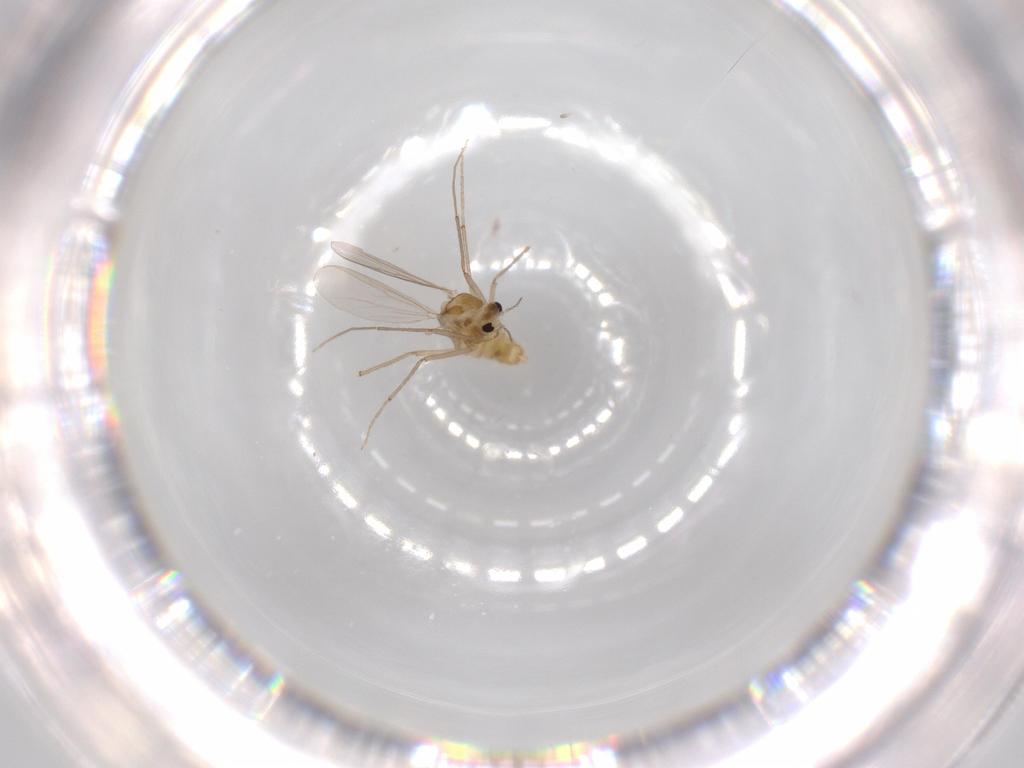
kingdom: Animalia
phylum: Arthropoda
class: Insecta
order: Diptera
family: Chironomidae
